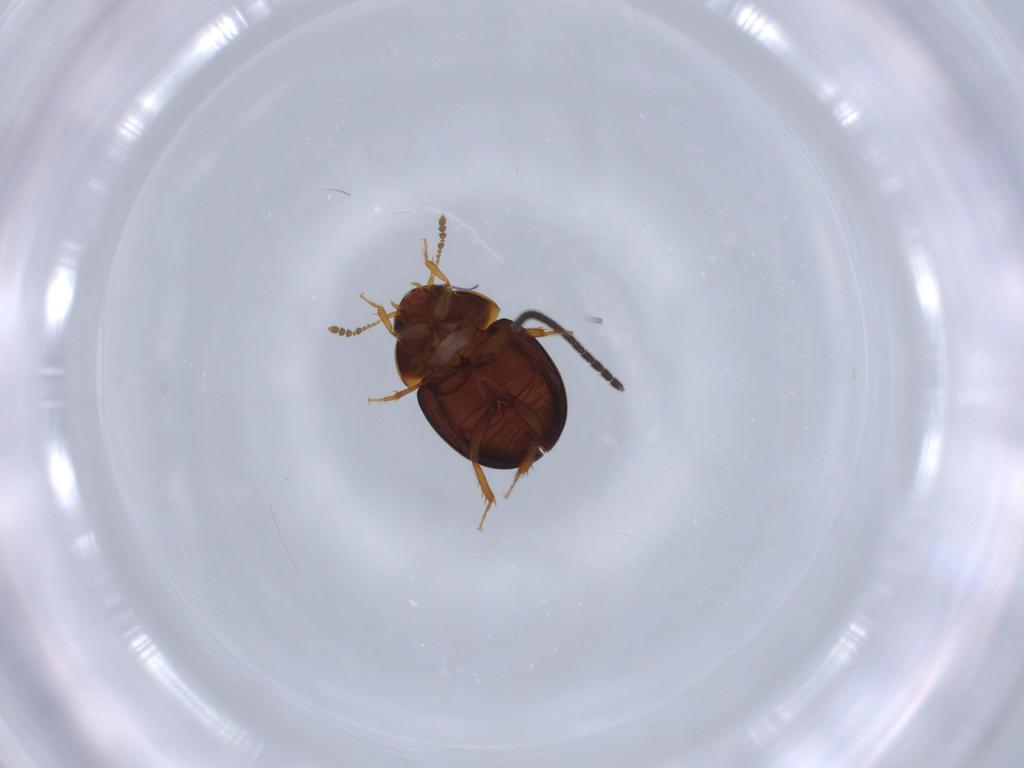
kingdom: Animalia
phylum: Arthropoda
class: Insecta
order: Coleoptera
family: Leiodidae
